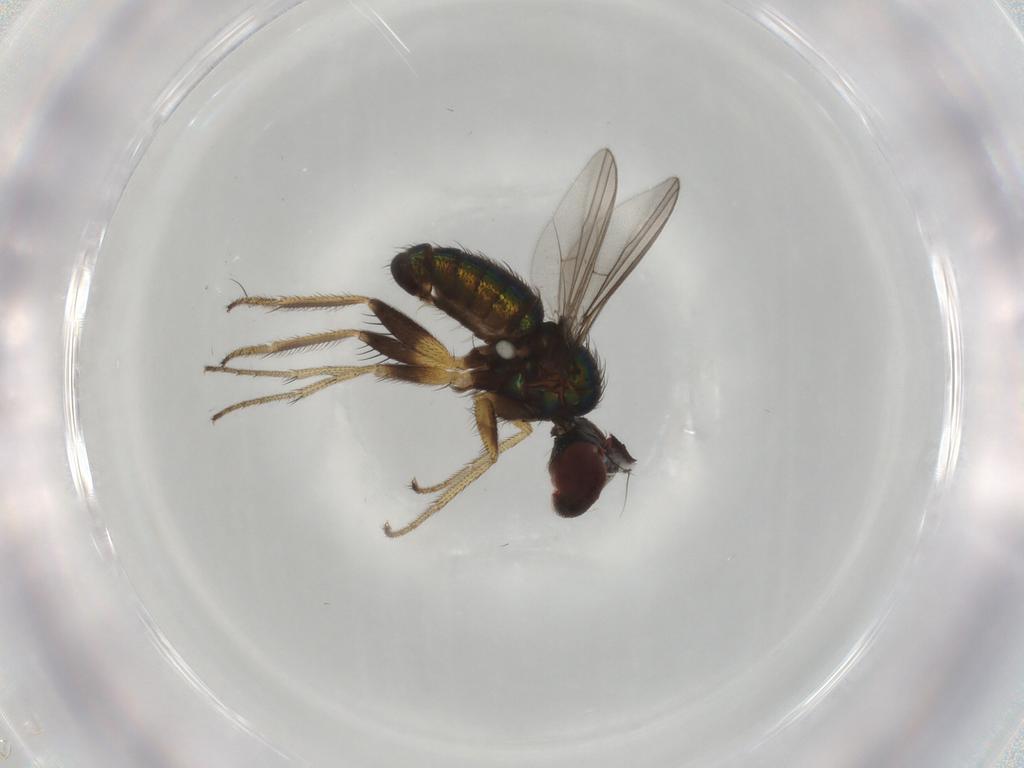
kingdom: Animalia
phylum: Arthropoda
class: Insecta
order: Diptera
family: Dolichopodidae
